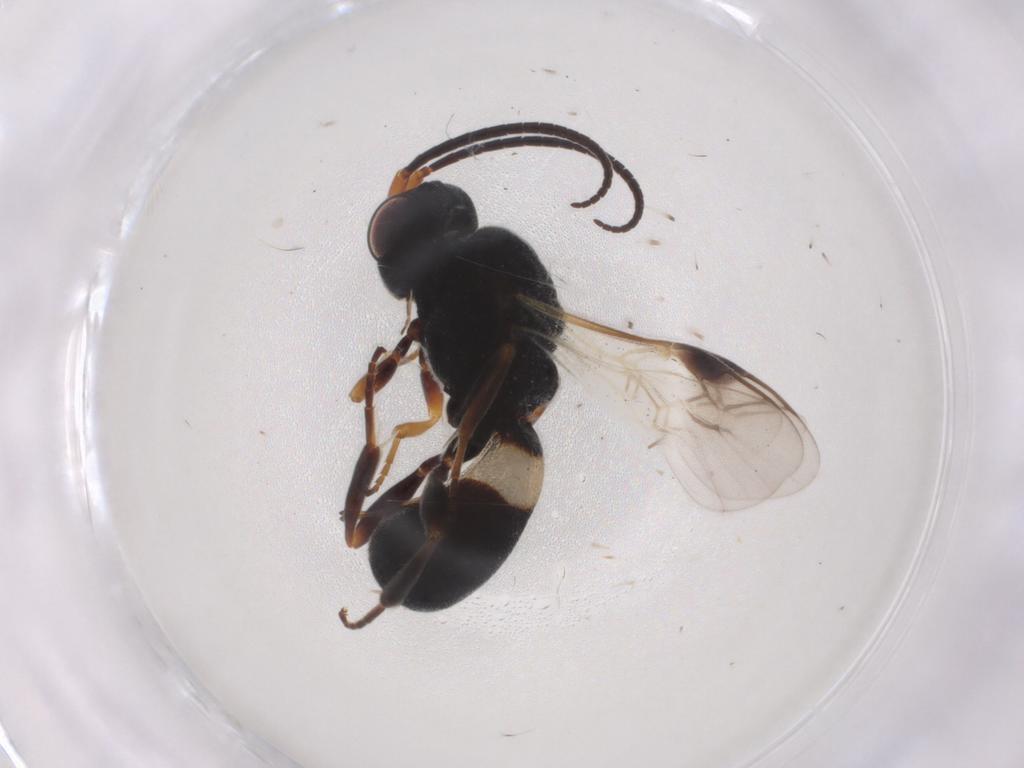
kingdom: Animalia
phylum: Arthropoda
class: Insecta
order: Hymenoptera
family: Braconidae
